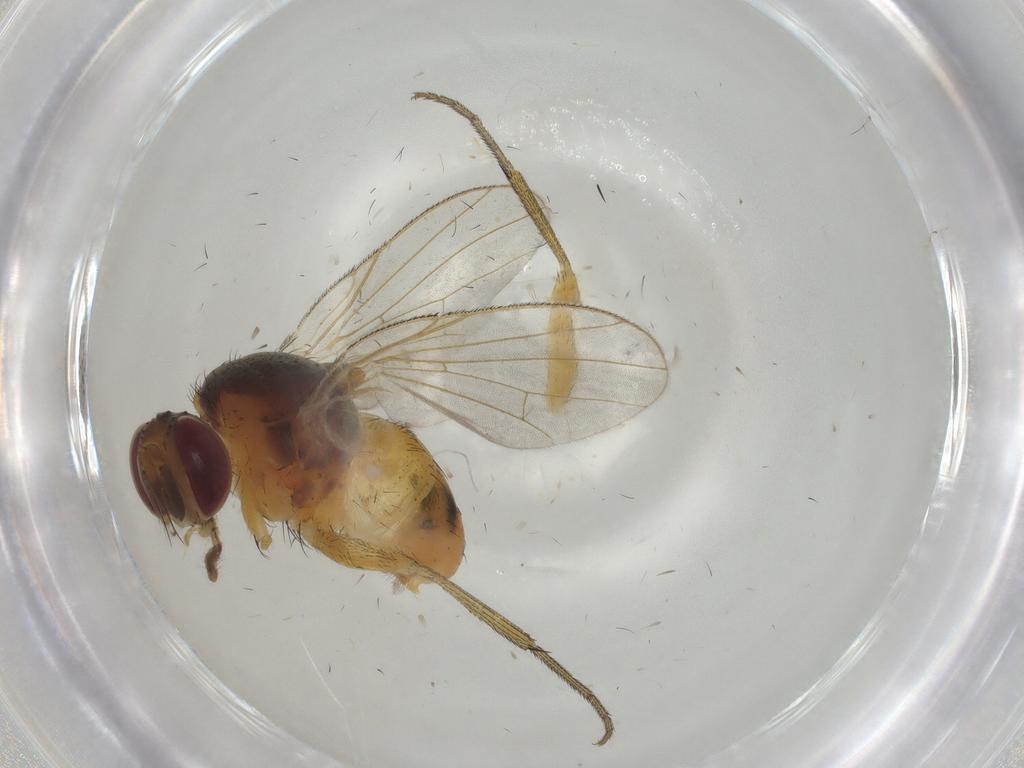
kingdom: Animalia
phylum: Arthropoda
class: Insecta
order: Diptera
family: Muscidae
